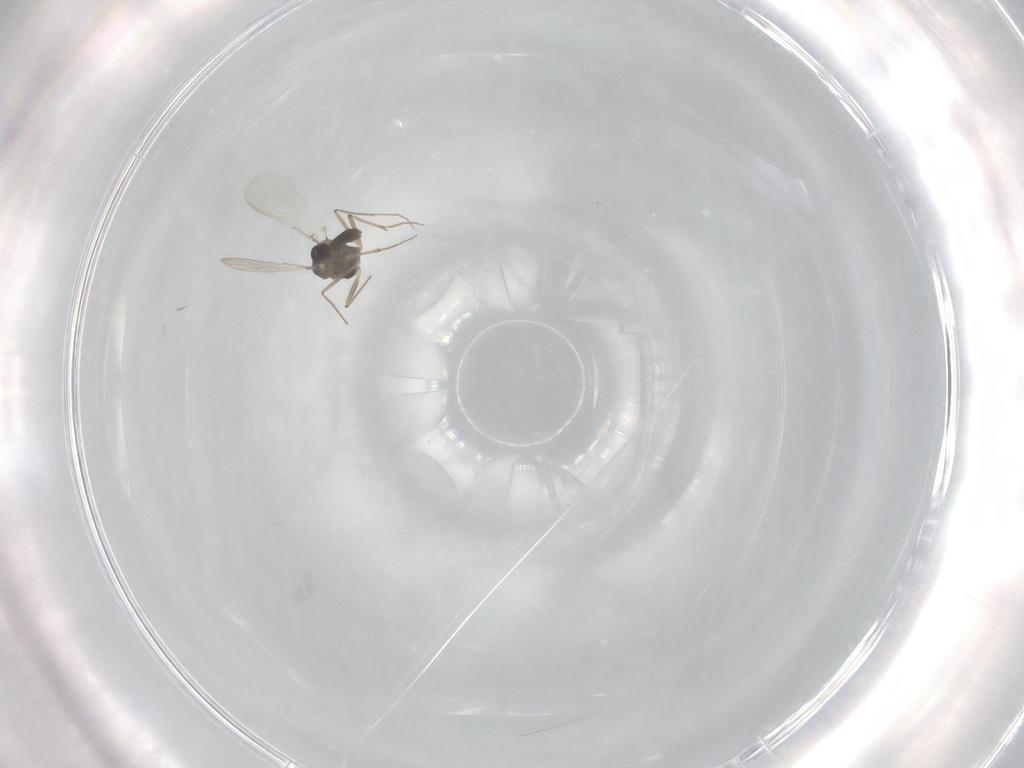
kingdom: Animalia
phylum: Arthropoda
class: Insecta
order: Diptera
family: Chironomidae
